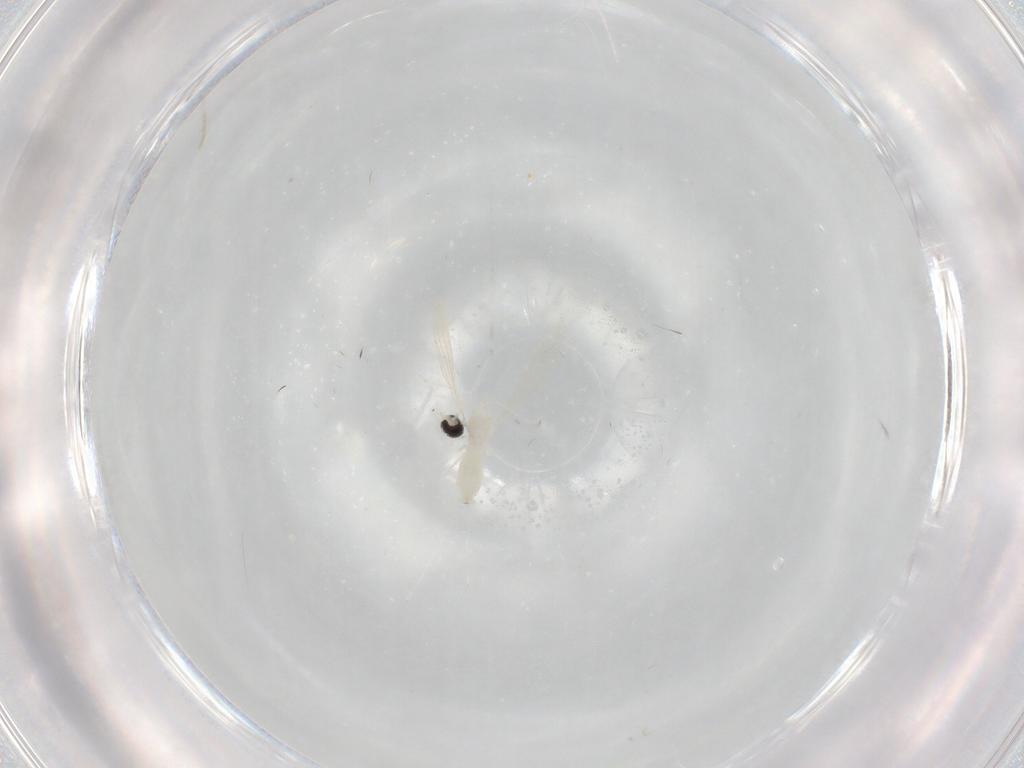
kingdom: Animalia
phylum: Arthropoda
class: Insecta
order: Diptera
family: Cecidomyiidae
